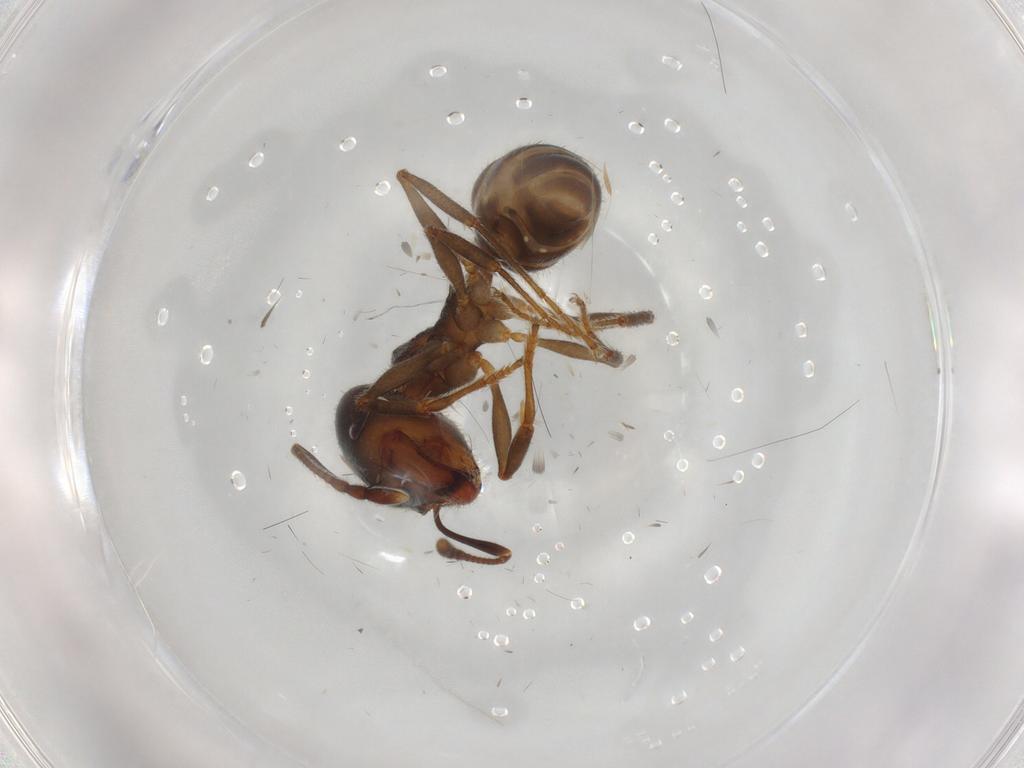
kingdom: Animalia
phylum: Arthropoda
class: Insecta
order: Hymenoptera
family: Formicidae
